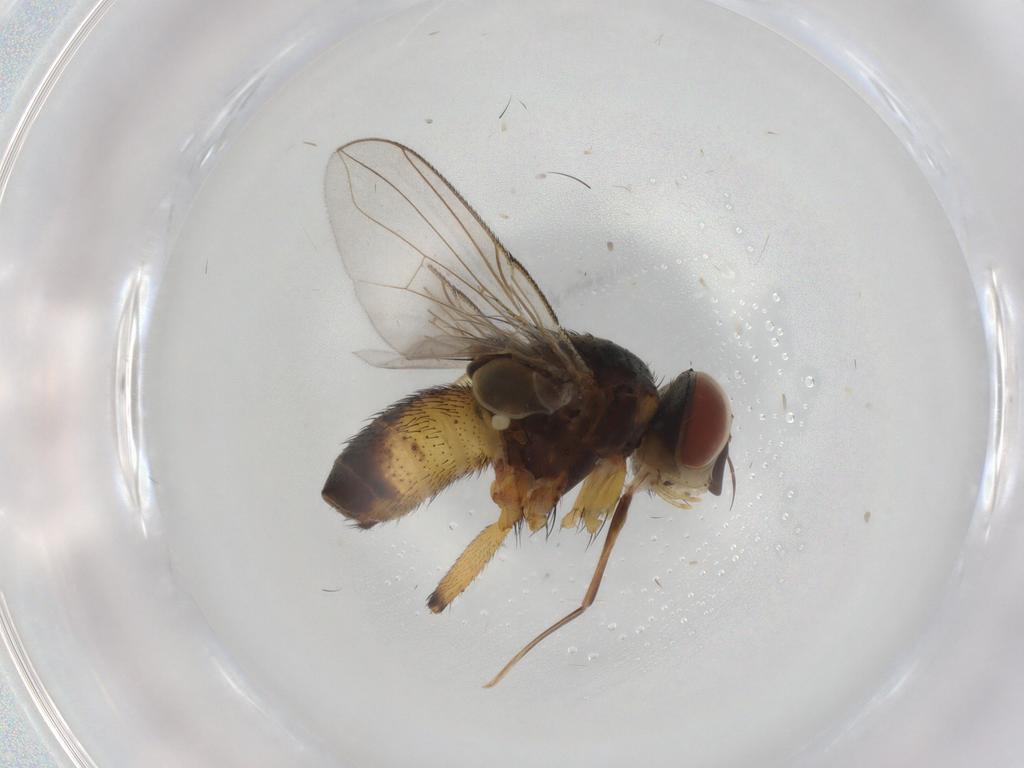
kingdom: Animalia
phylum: Arthropoda
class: Insecta
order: Diptera
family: Tachinidae
